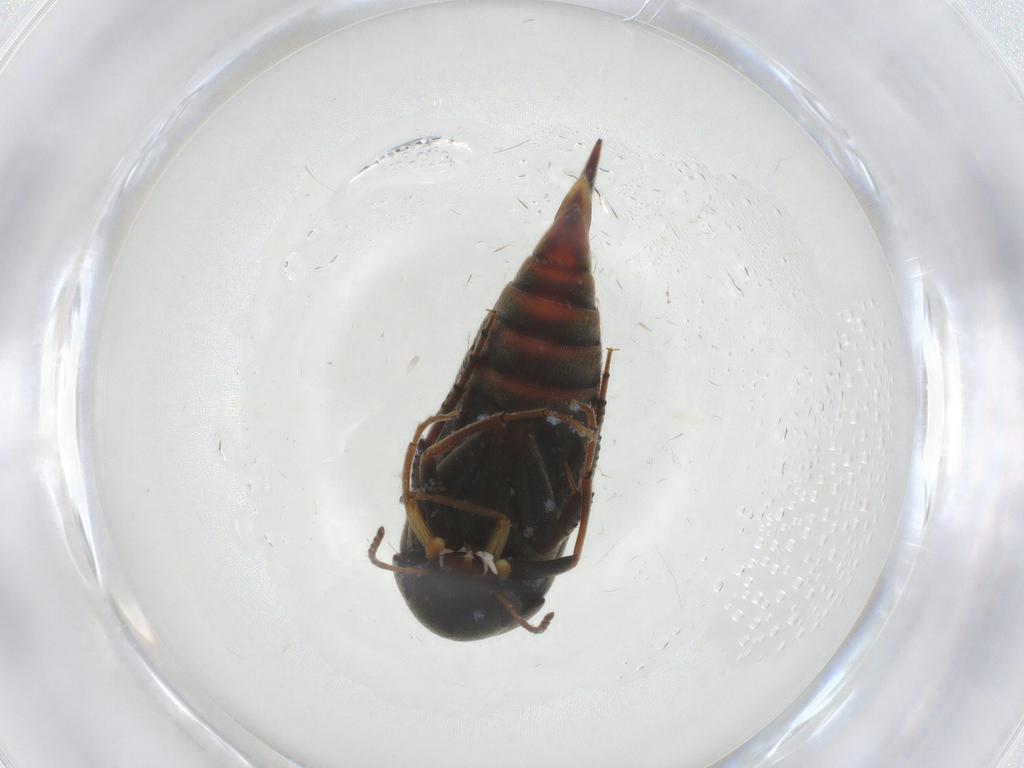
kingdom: Animalia
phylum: Arthropoda
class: Insecta
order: Coleoptera
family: Mordellidae
